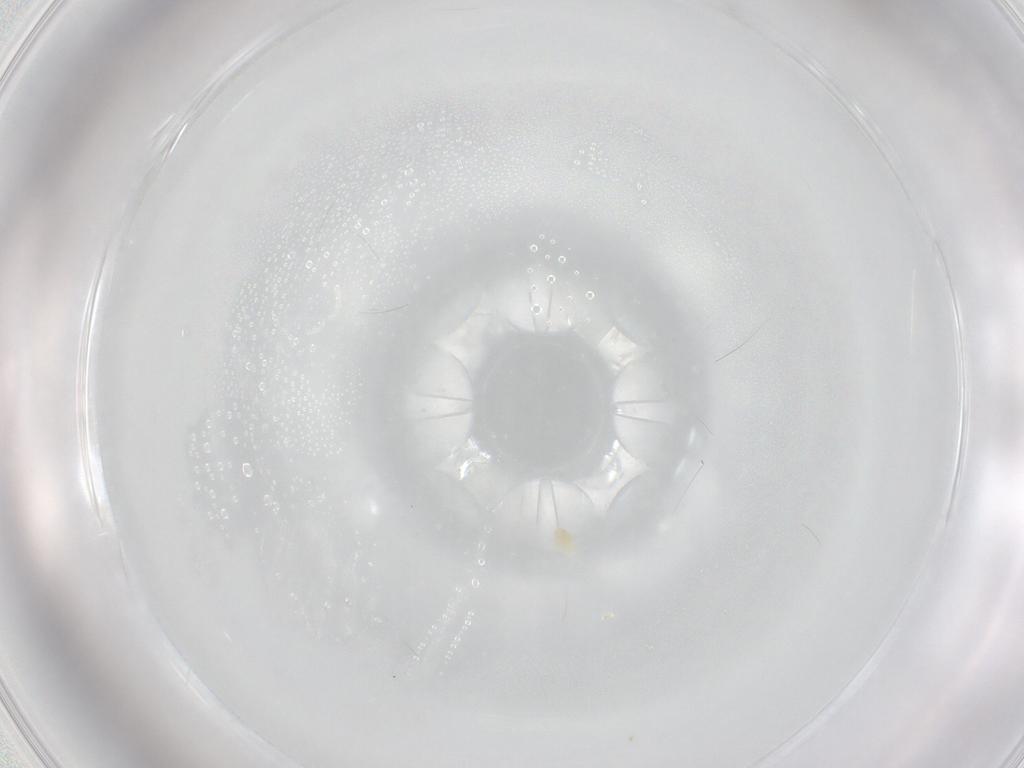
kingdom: Animalia
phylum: Arthropoda
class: Arachnida
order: Trombidiformes
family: Eupodidae
